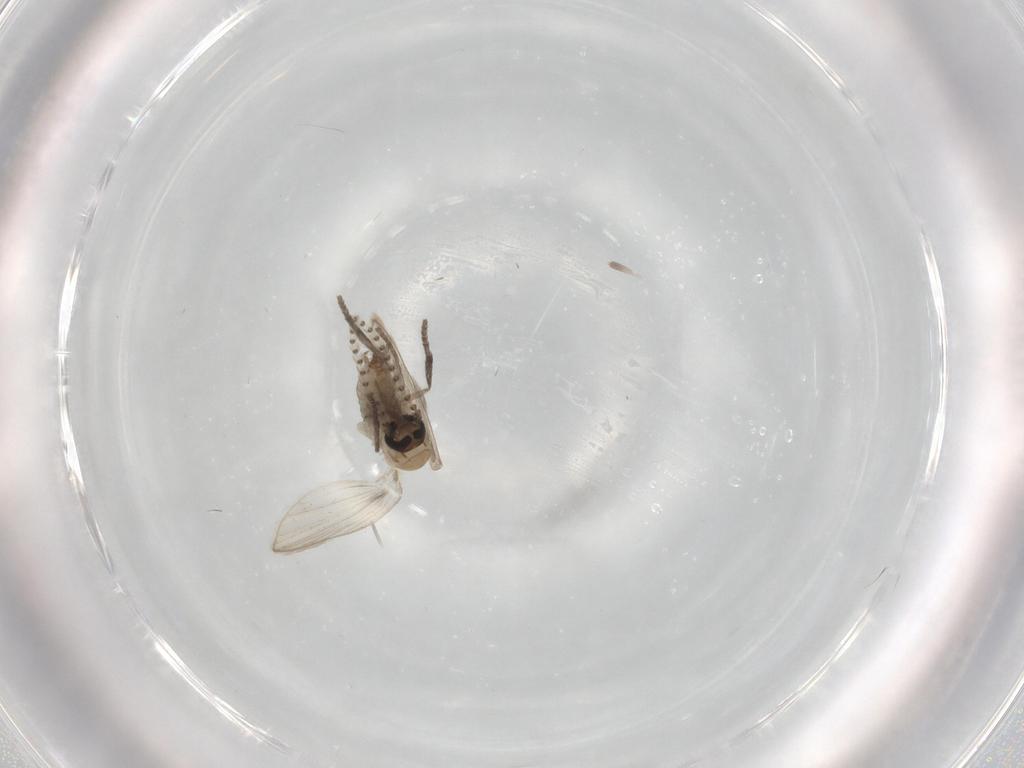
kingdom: Animalia
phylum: Arthropoda
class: Insecta
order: Diptera
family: Psychodidae
